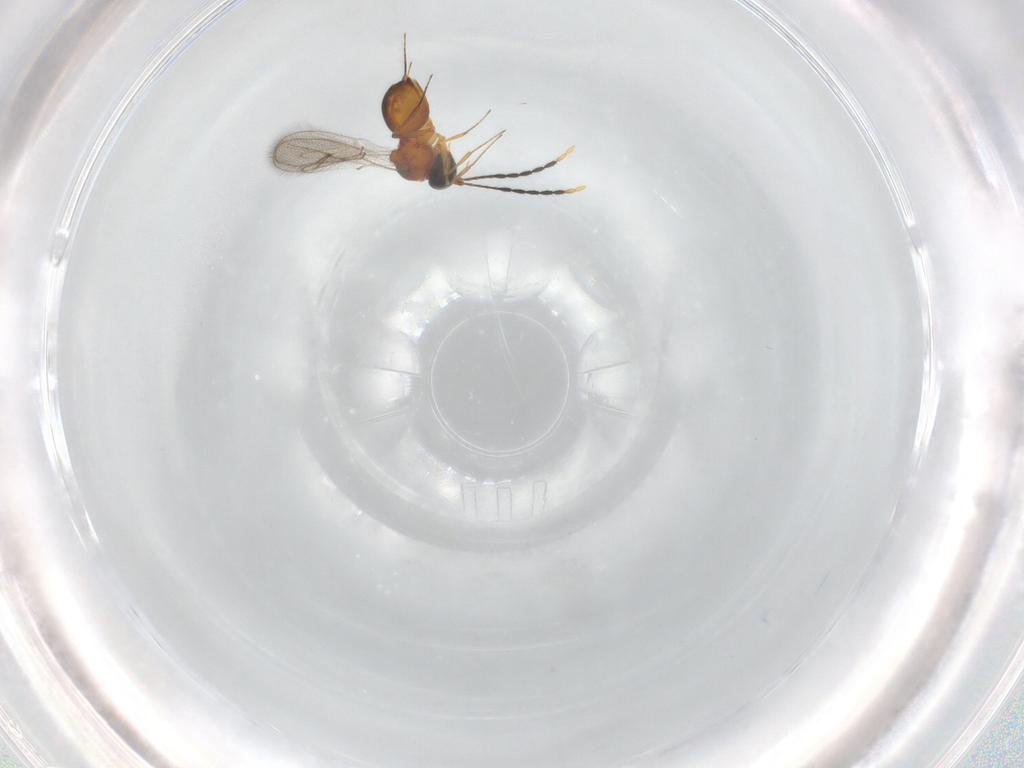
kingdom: Animalia
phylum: Arthropoda
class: Insecta
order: Hymenoptera
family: Figitidae
